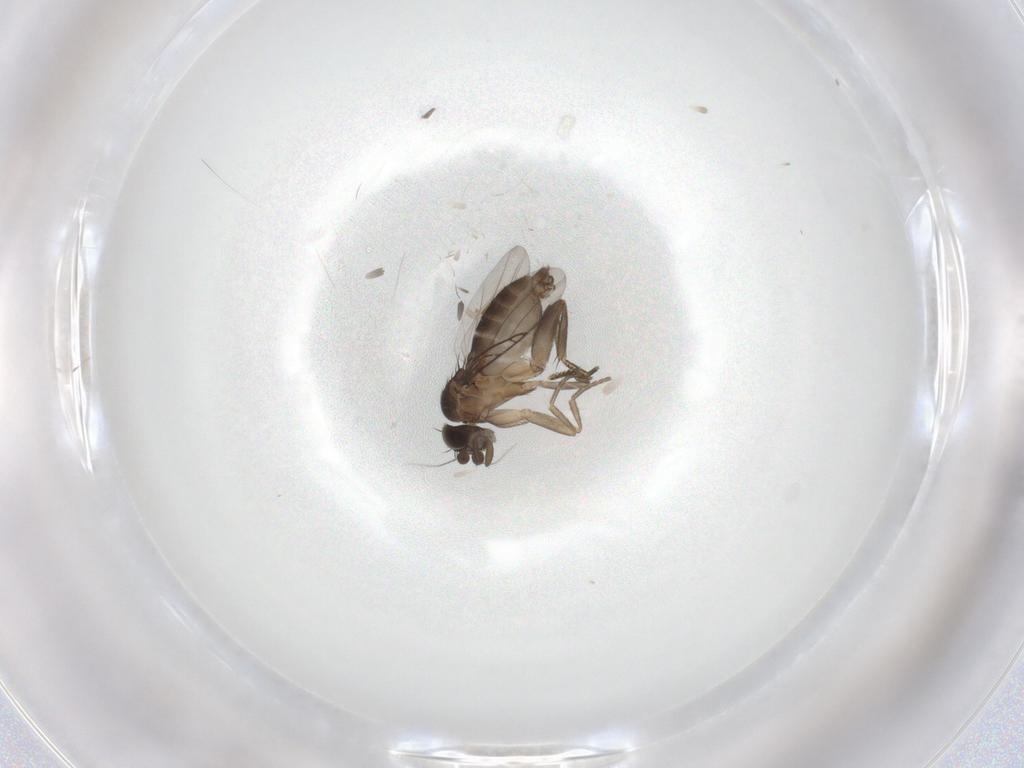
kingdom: Animalia
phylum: Arthropoda
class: Insecta
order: Diptera
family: Phoridae
